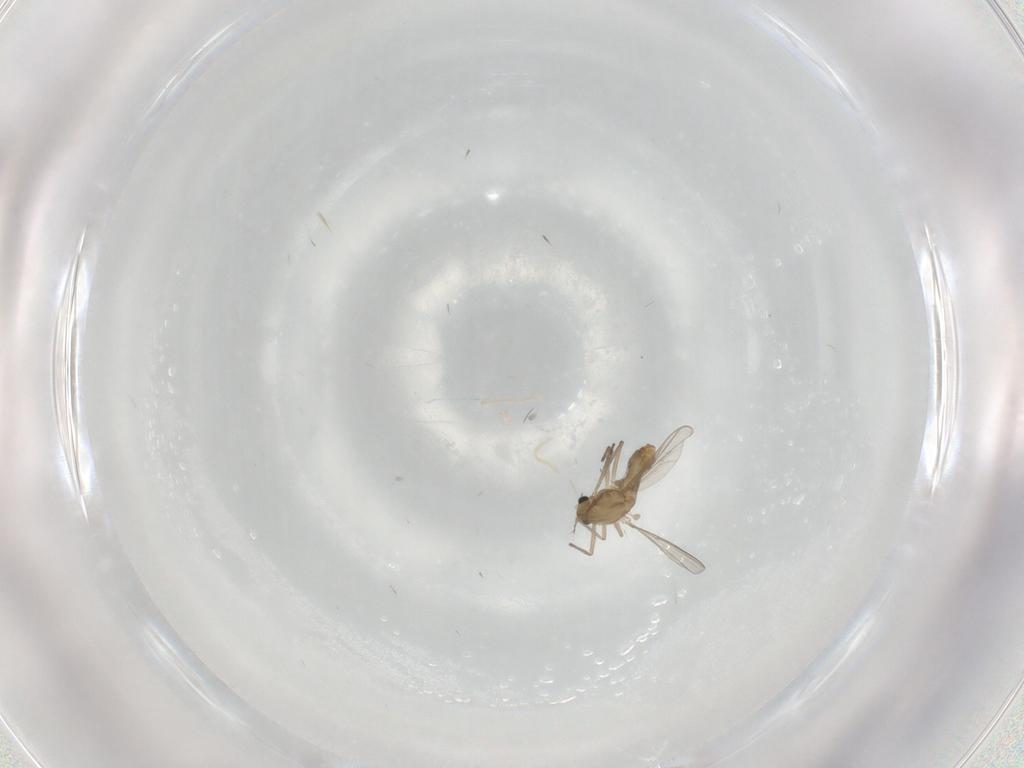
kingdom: Animalia
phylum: Arthropoda
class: Insecta
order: Diptera
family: Chironomidae
